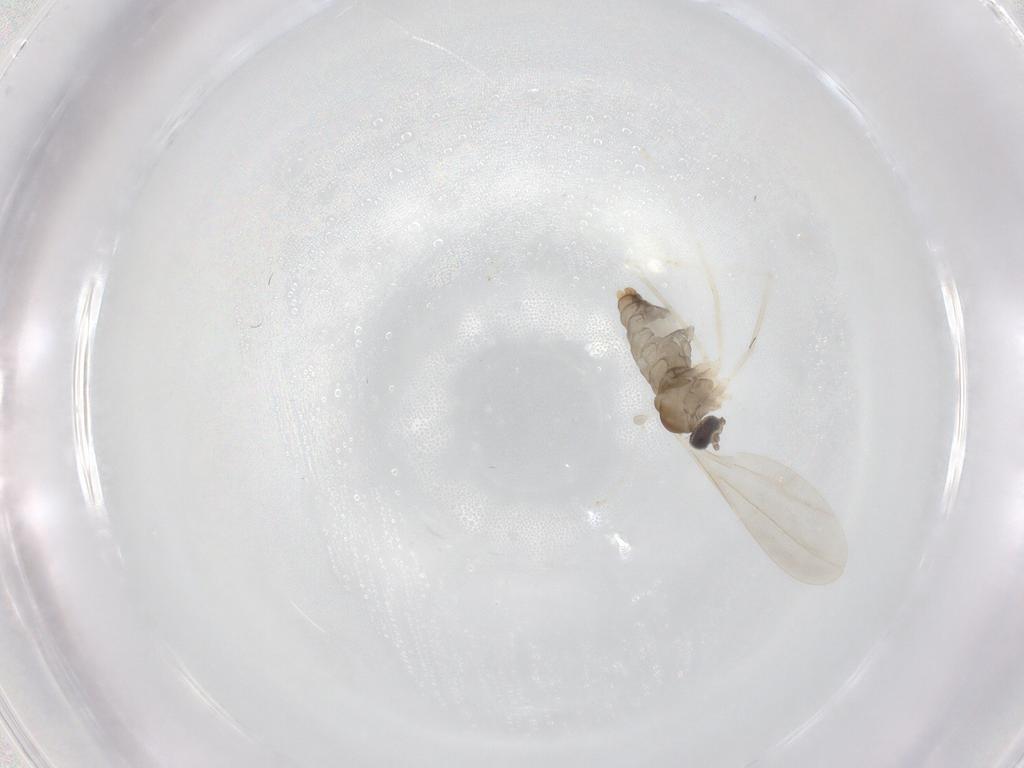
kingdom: Animalia
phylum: Arthropoda
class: Insecta
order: Diptera
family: Cecidomyiidae
